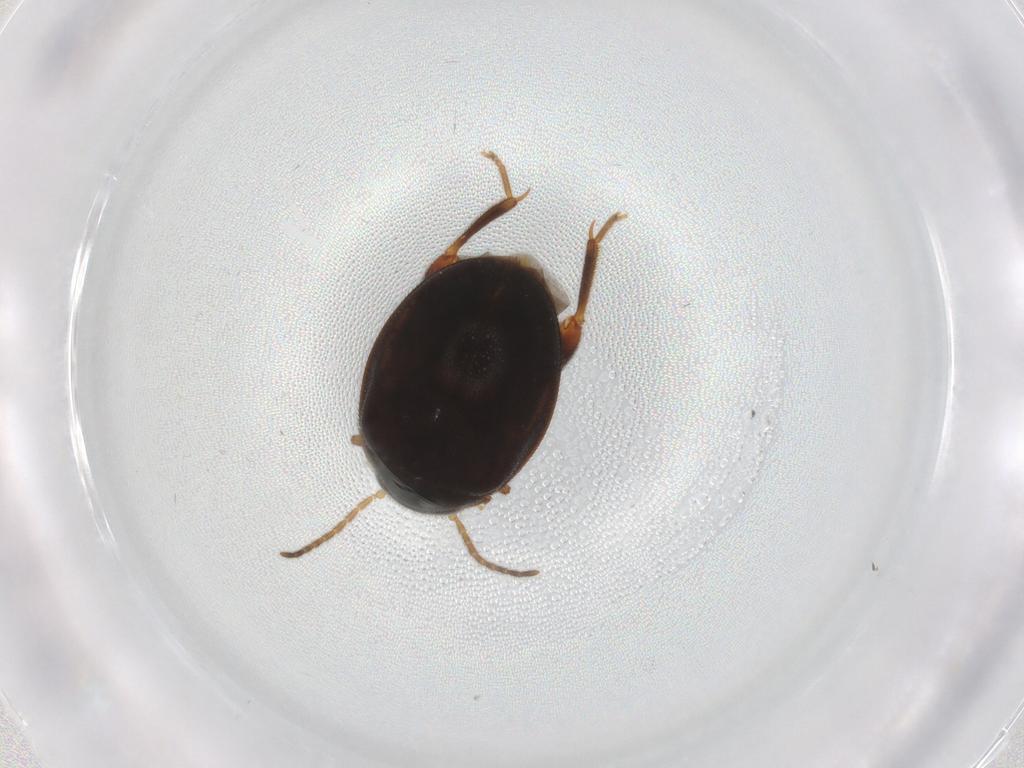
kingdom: Animalia
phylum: Arthropoda
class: Insecta
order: Coleoptera
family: Scirtidae
